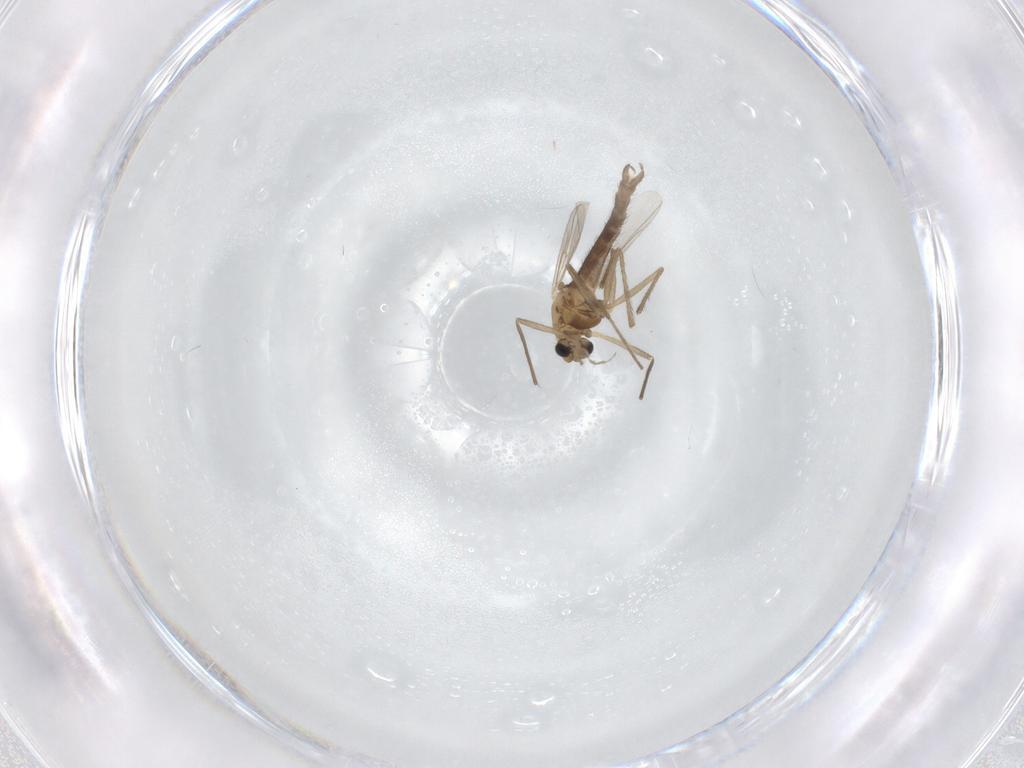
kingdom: Animalia
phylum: Arthropoda
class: Insecta
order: Diptera
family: Chironomidae
